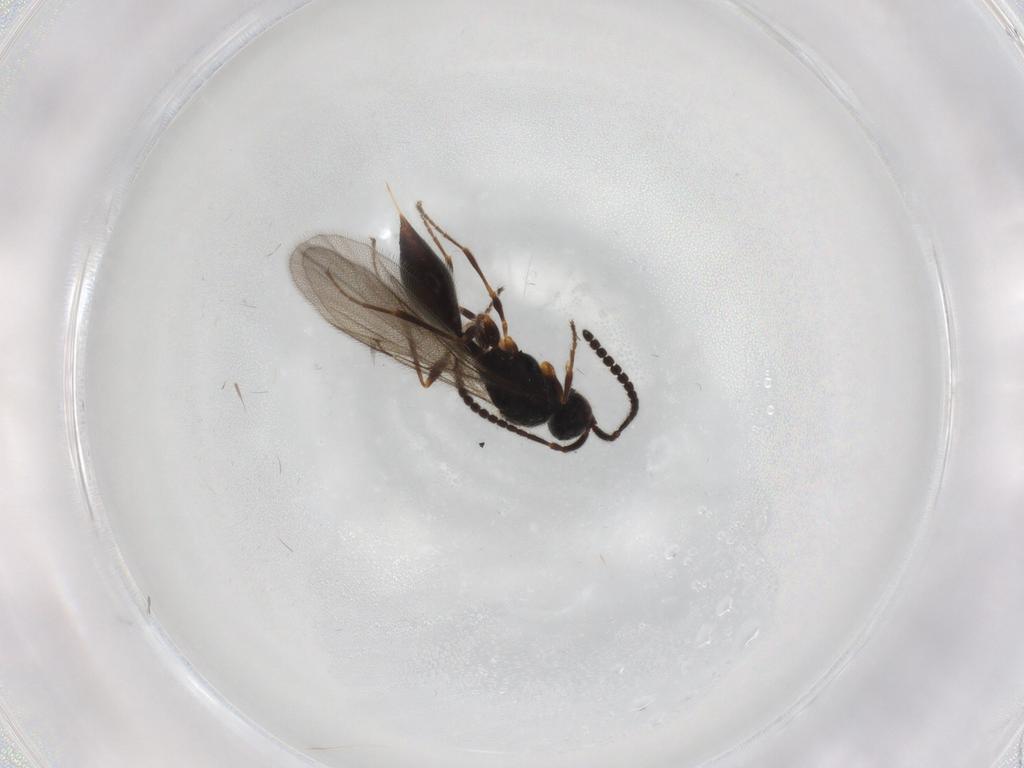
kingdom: Animalia
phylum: Arthropoda
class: Insecta
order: Hymenoptera
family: Diapriidae
